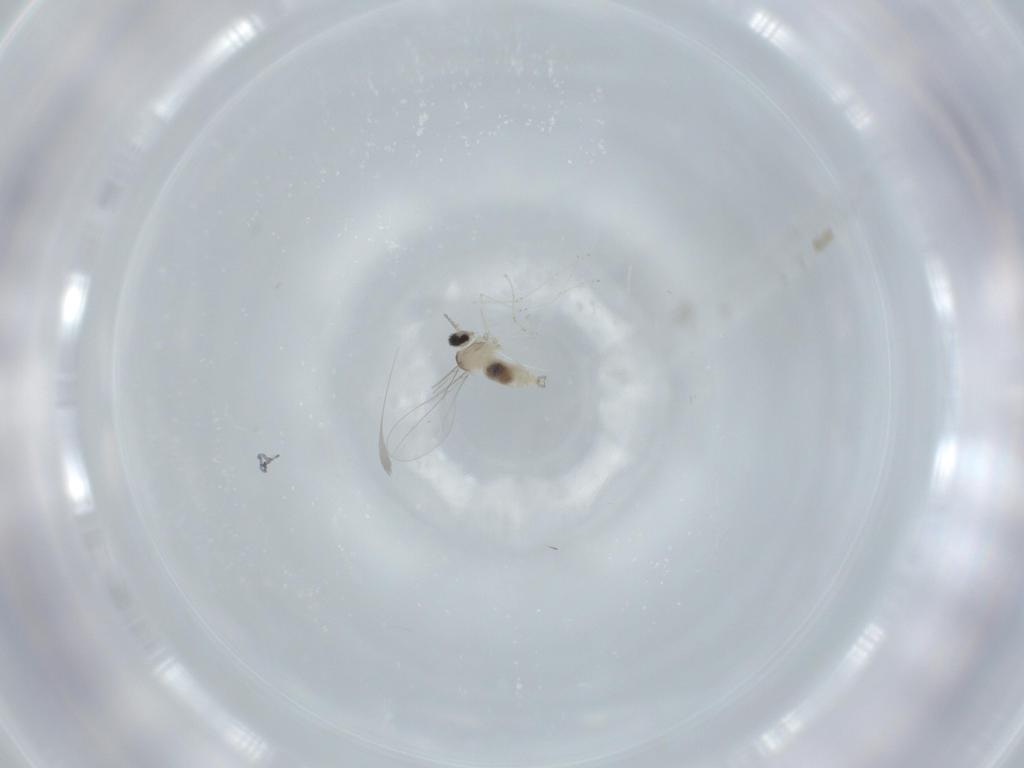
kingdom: Animalia
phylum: Arthropoda
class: Insecta
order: Diptera
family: Cecidomyiidae
